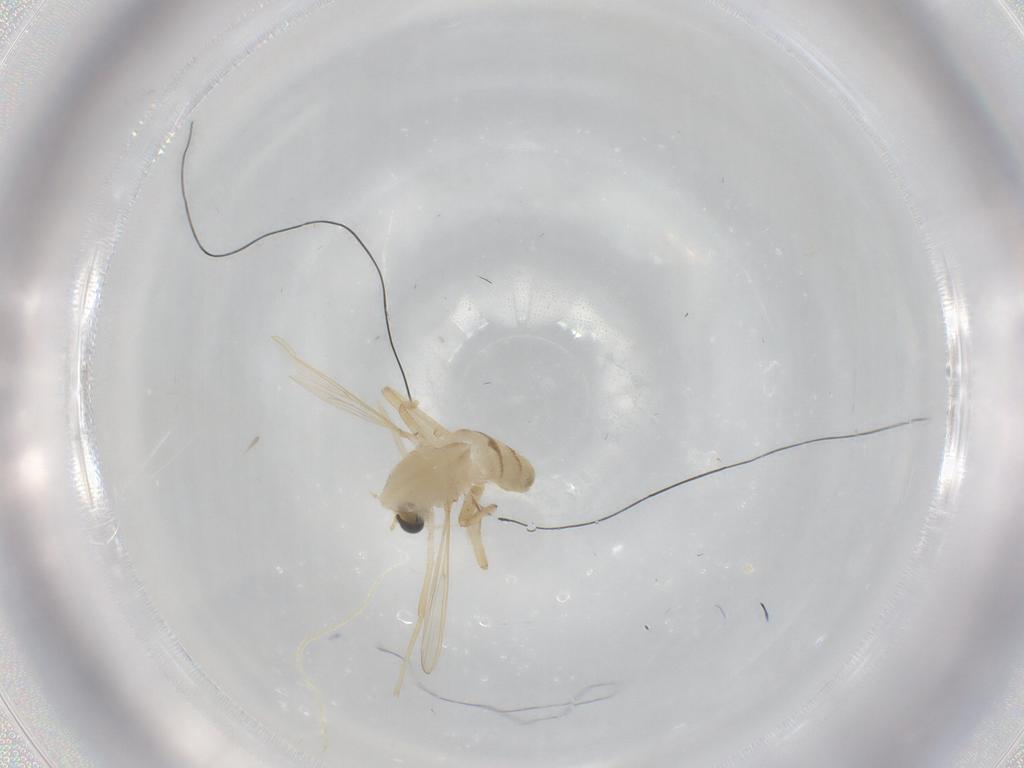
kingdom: Animalia
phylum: Arthropoda
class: Insecta
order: Diptera
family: Chironomidae
